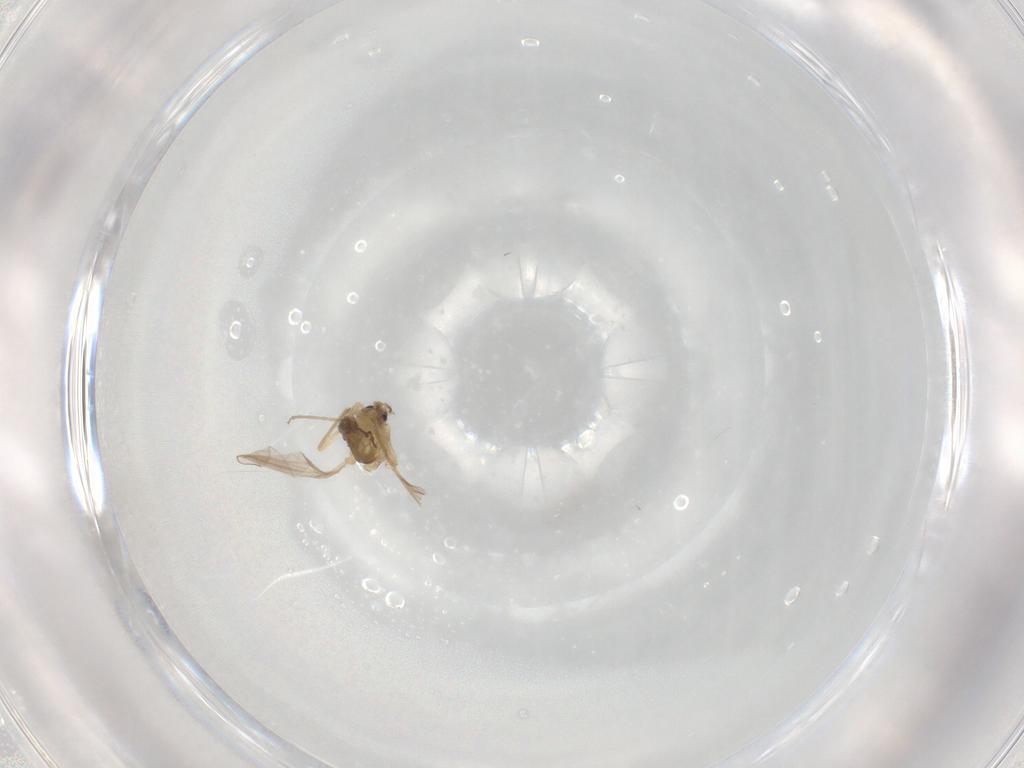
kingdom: Animalia
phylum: Arthropoda
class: Insecta
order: Diptera
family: Chironomidae
